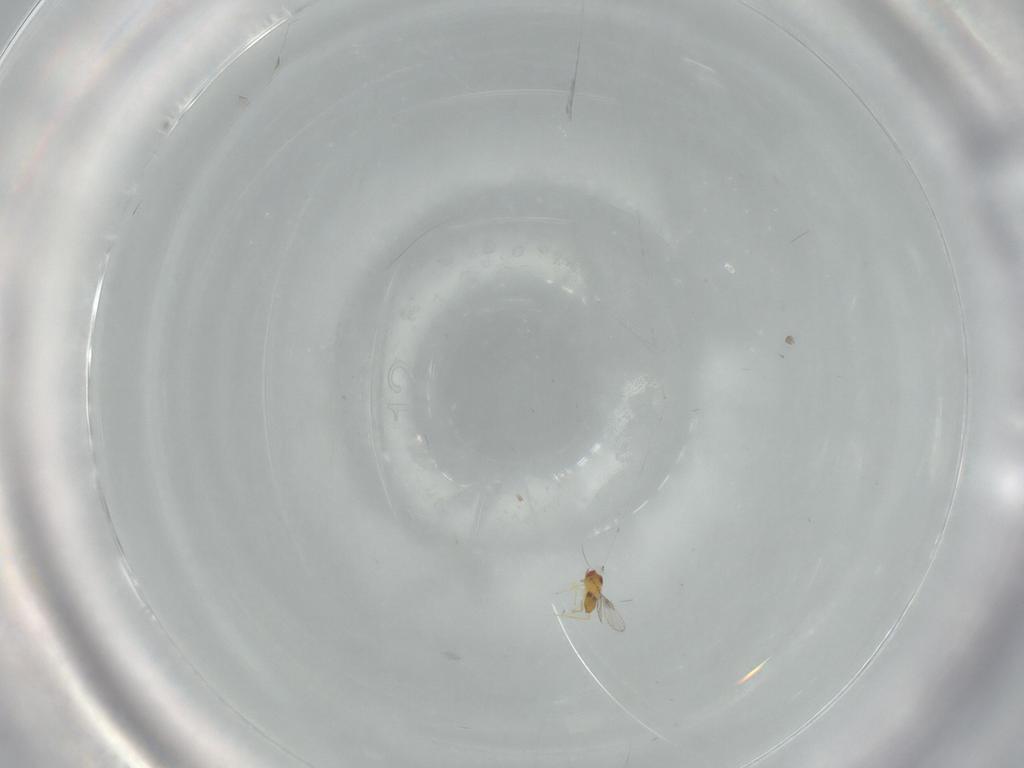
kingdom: Animalia
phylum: Arthropoda
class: Insecta
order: Hymenoptera
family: Trichogrammatidae
